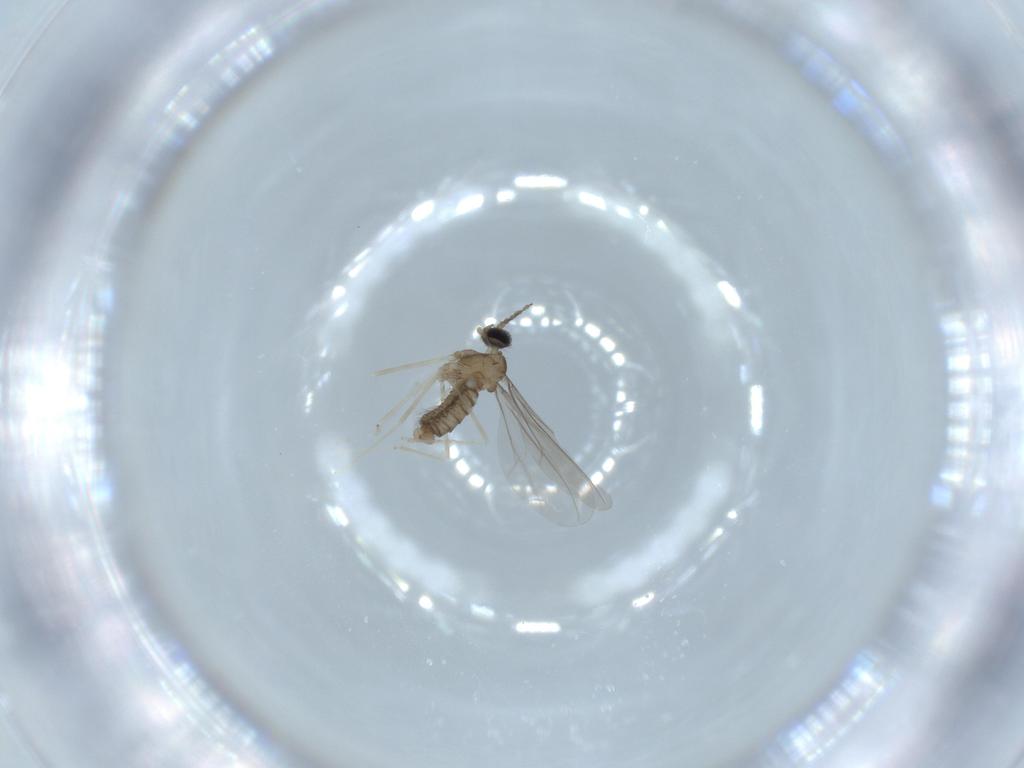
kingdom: Animalia
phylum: Arthropoda
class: Insecta
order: Diptera
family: Cecidomyiidae
